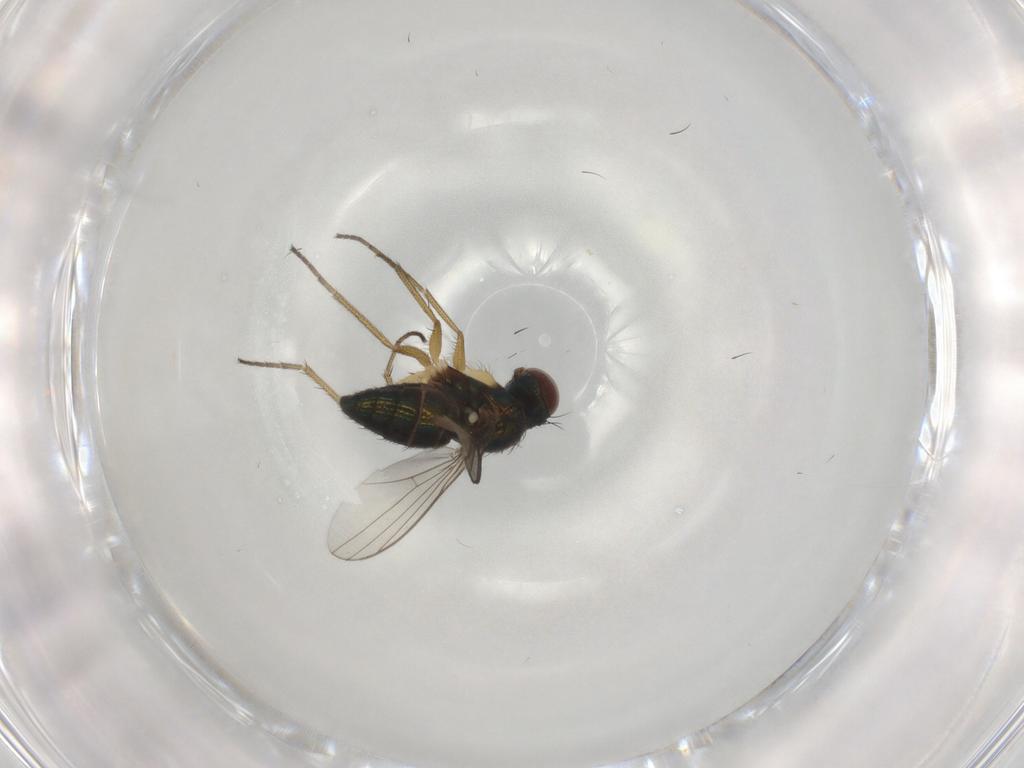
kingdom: Animalia
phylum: Arthropoda
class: Insecta
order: Diptera
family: Dolichopodidae
